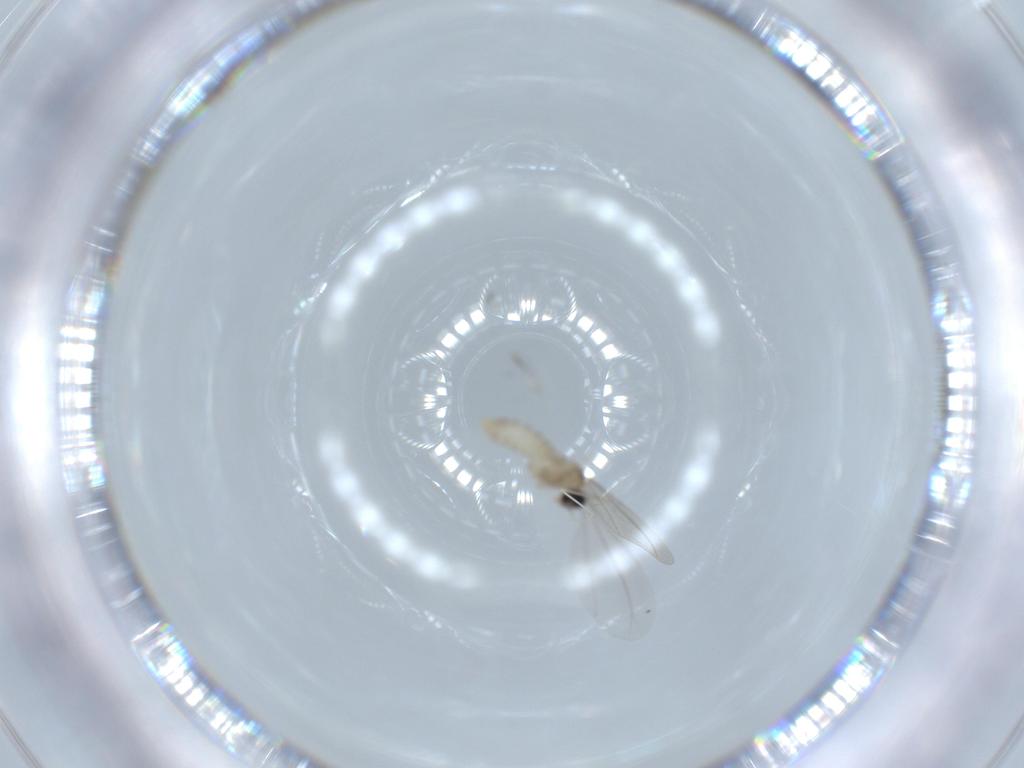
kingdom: Animalia
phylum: Arthropoda
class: Insecta
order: Diptera
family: Cecidomyiidae
